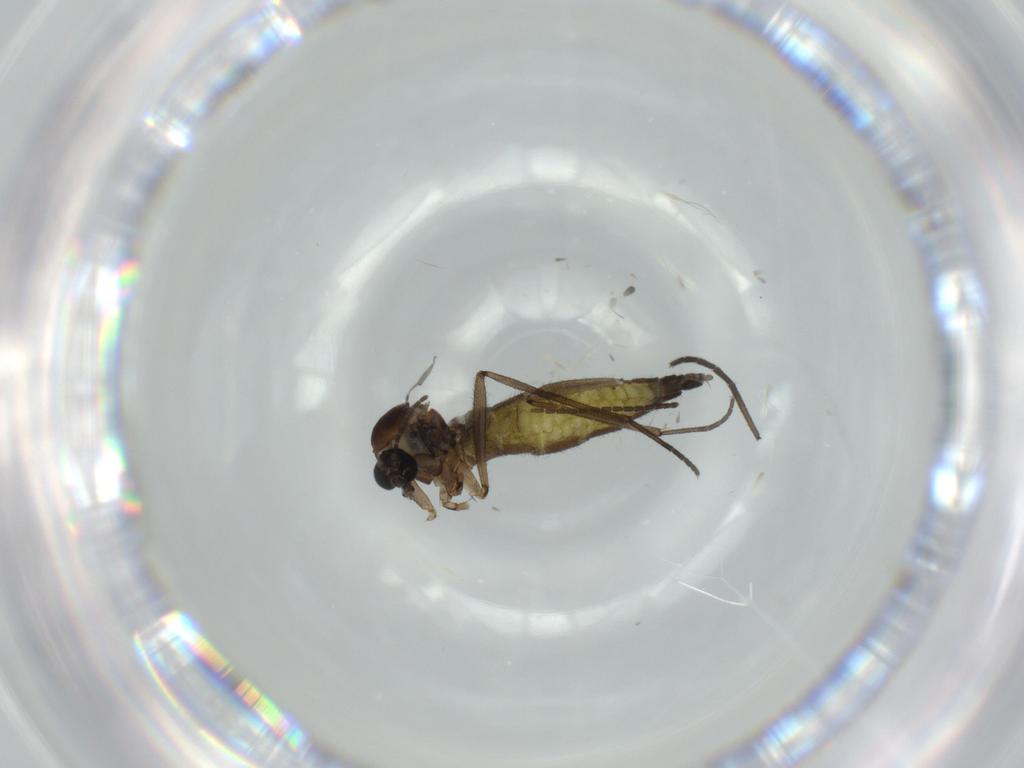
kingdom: Animalia
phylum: Arthropoda
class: Insecta
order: Diptera
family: Sciaridae
